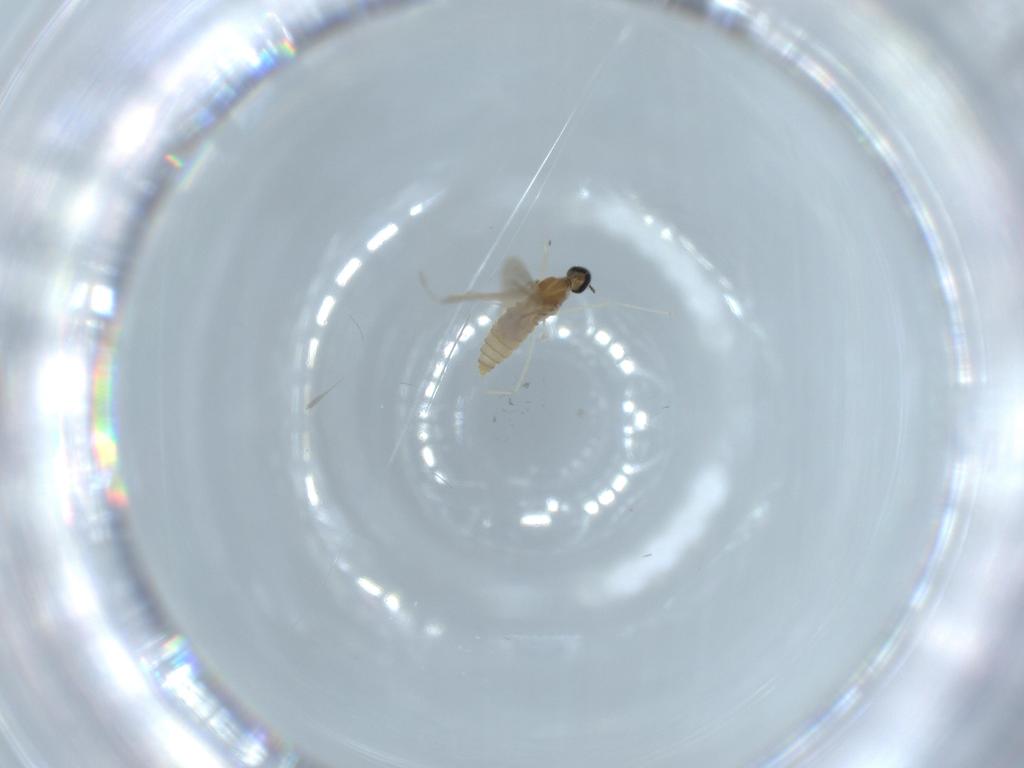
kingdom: Animalia
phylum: Arthropoda
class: Insecta
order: Diptera
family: Cecidomyiidae
